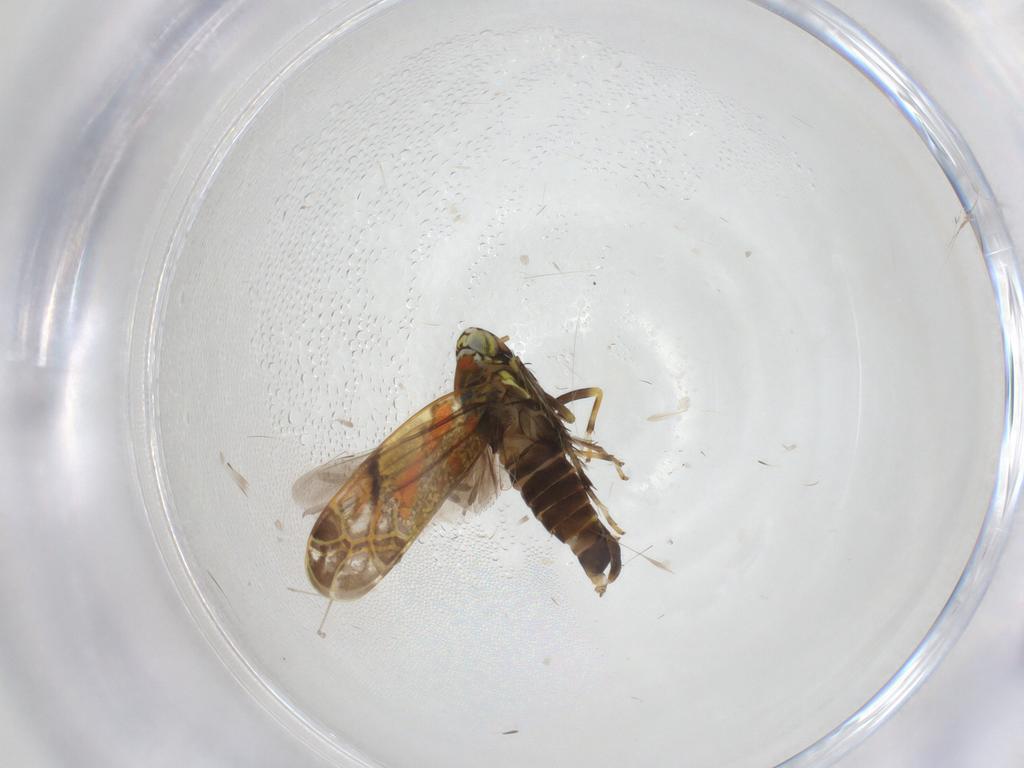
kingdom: Animalia
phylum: Arthropoda
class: Insecta
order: Hemiptera
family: Cicadellidae
